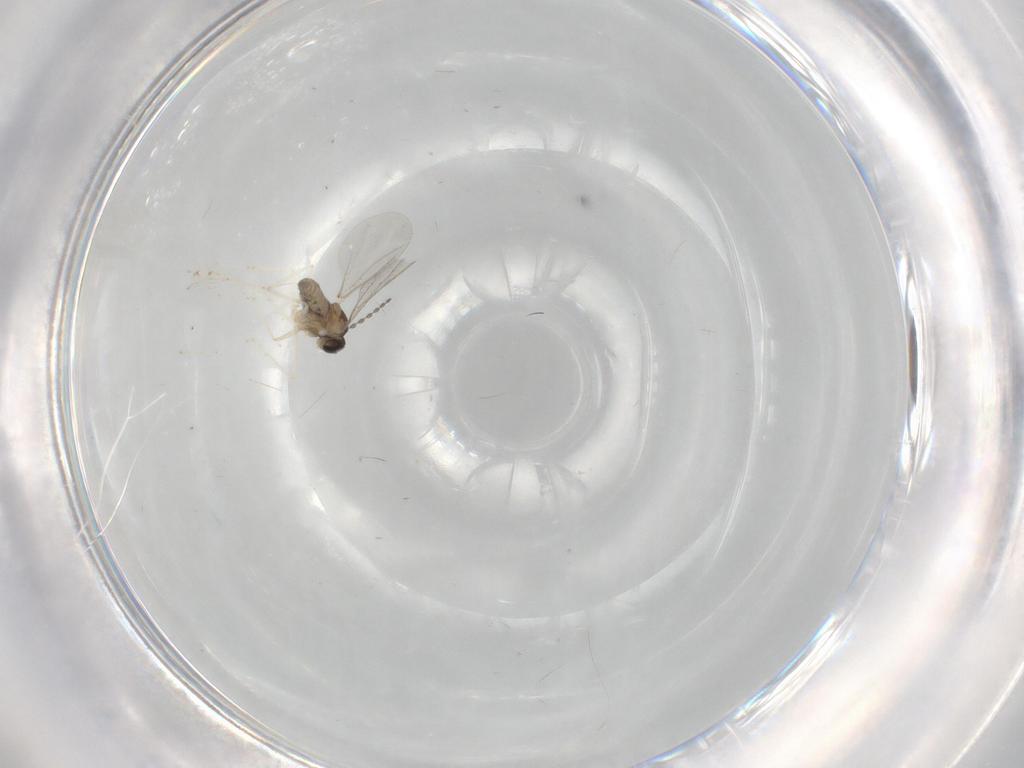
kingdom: Animalia
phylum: Arthropoda
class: Insecta
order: Diptera
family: Cecidomyiidae
